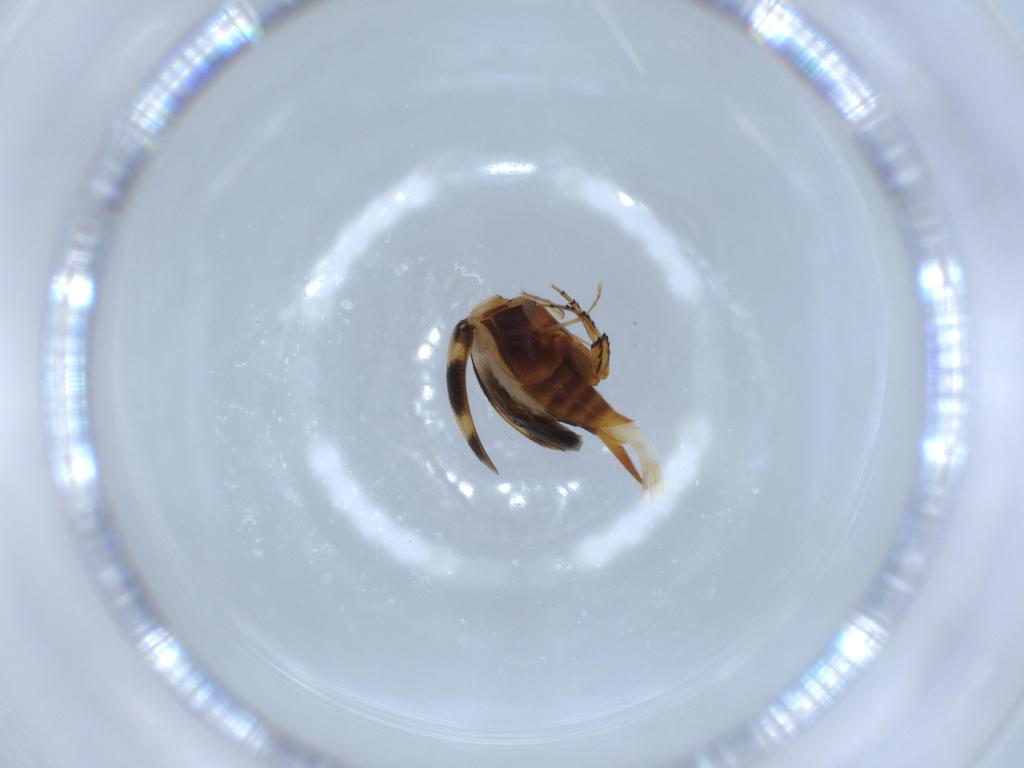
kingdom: Animalia
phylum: Arthropoda
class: Insecta
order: Coleoptera
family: Mordellidae
